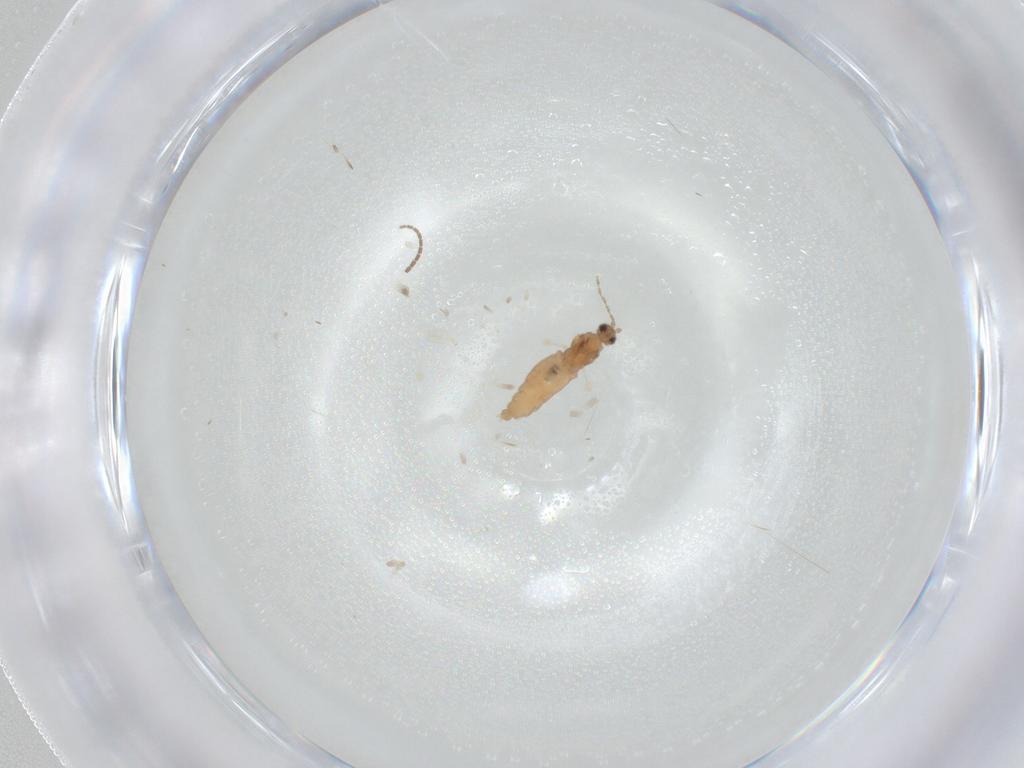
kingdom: Animalia
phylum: Arthropoda
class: Insecta
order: Diptera
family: Cecidomyiidae
